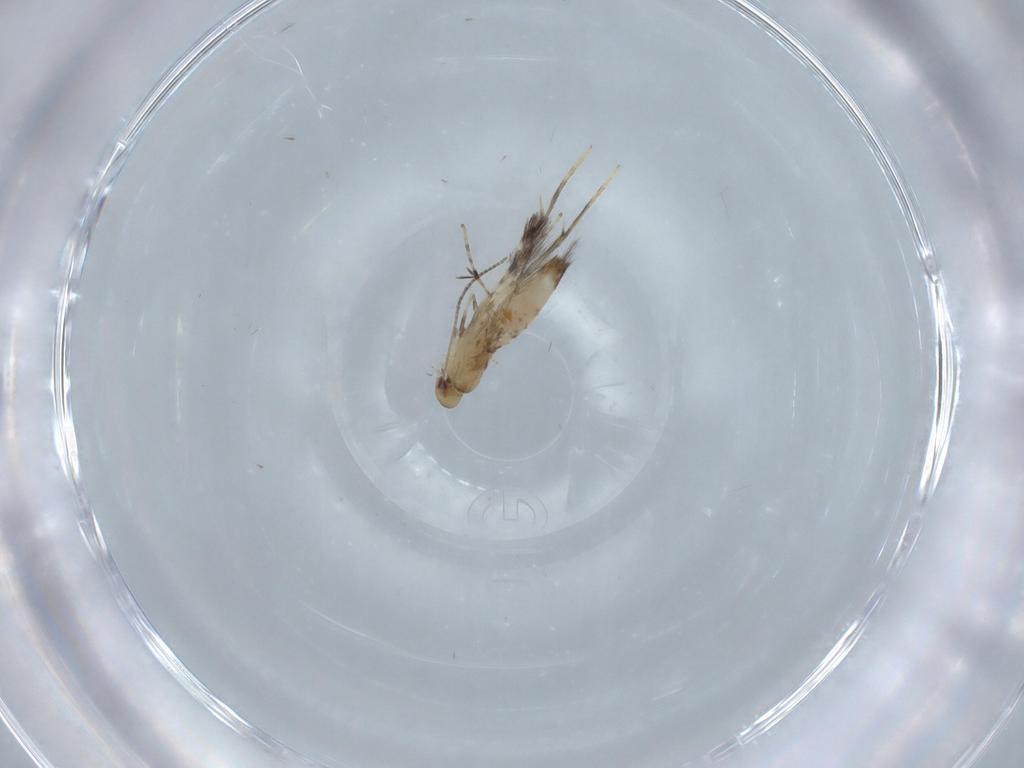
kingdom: Animalia
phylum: Arthropoda
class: Insecta
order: Lepidoptera
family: Gracillariidae
